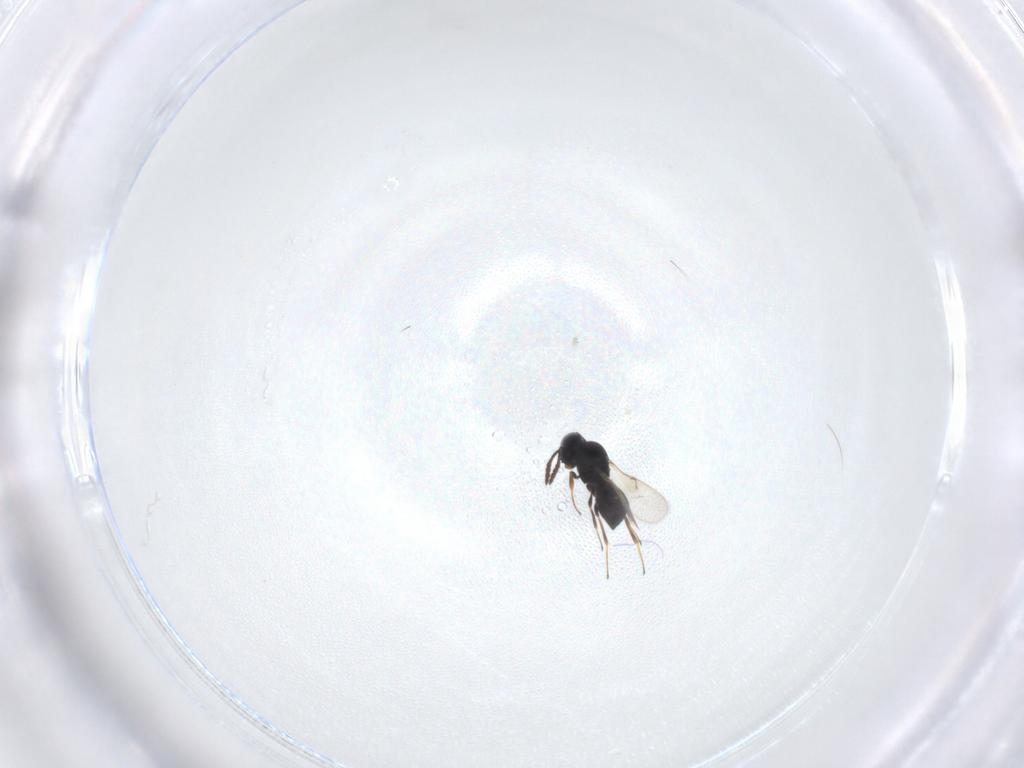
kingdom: Animalia
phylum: Arthropoda
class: Insecta
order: Hymenoptera
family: Scelionidae
